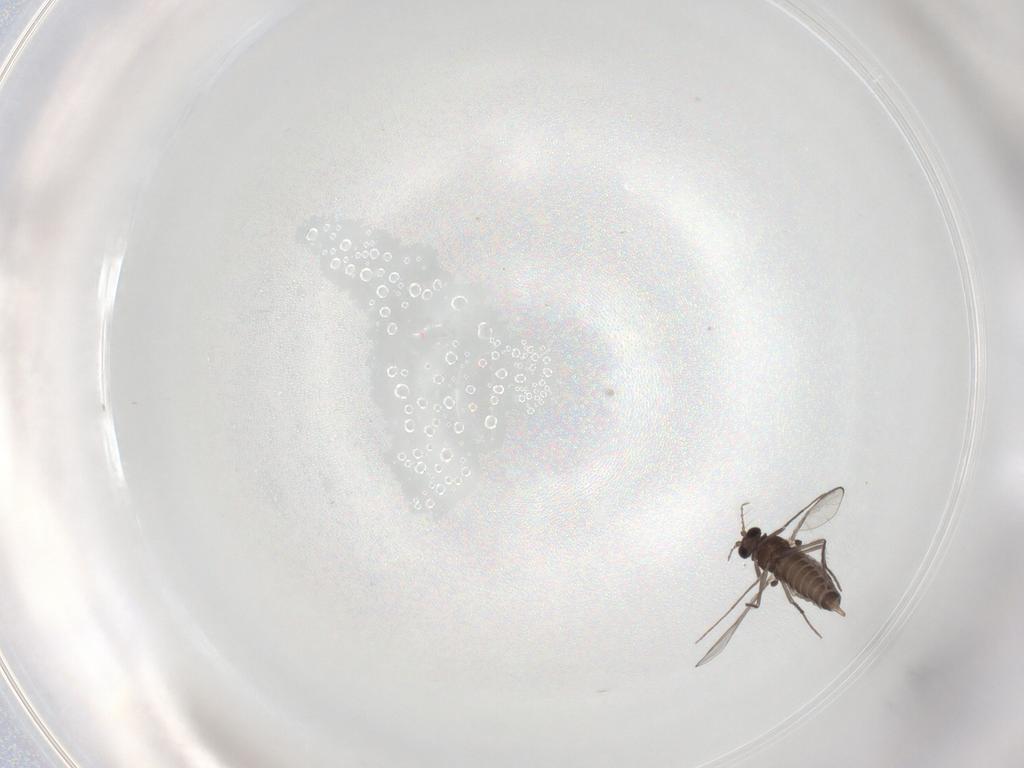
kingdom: Animalia
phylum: Arthropoda
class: Insecta
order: Diptera
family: Chironomidae
